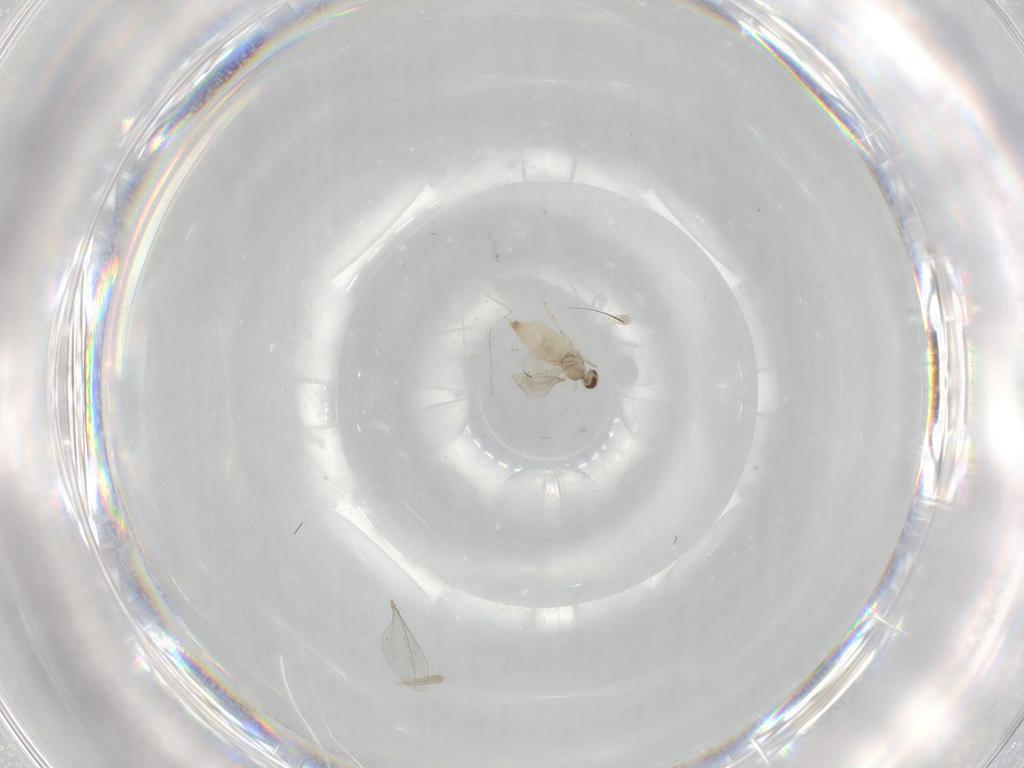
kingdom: Animalia
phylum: Arthropoda
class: Insecta
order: Diptera
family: Cecidomyiidae
